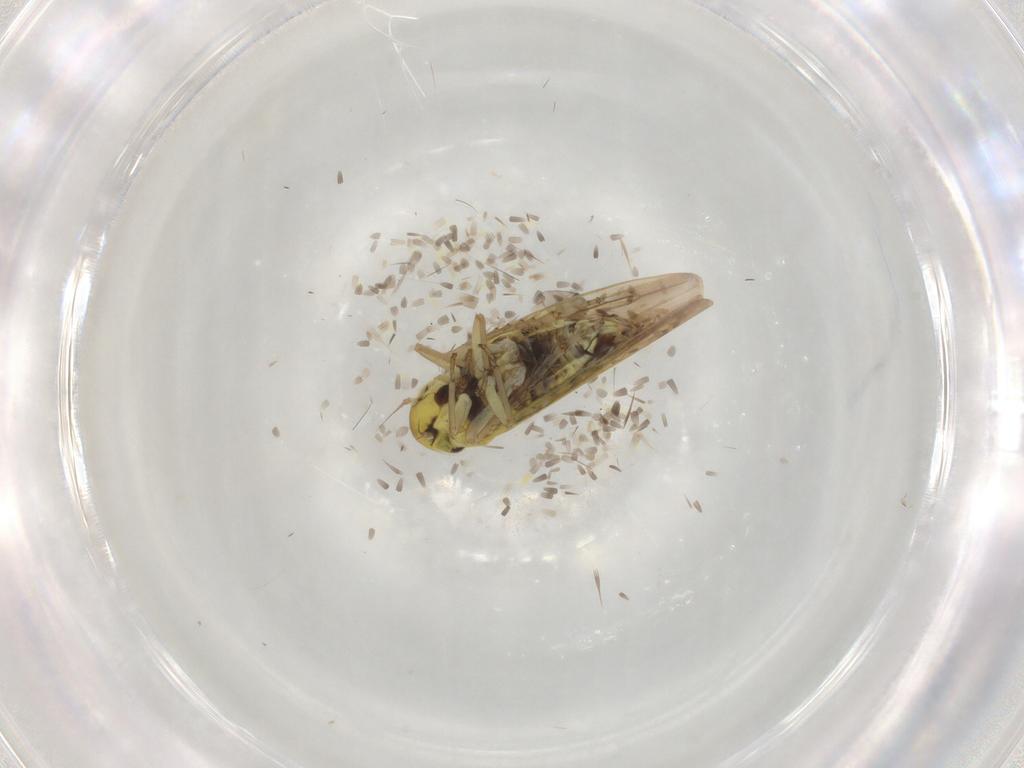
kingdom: Animalia
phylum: Arthropoda
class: Insecta
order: Hemiptera
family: Cicadellidae
